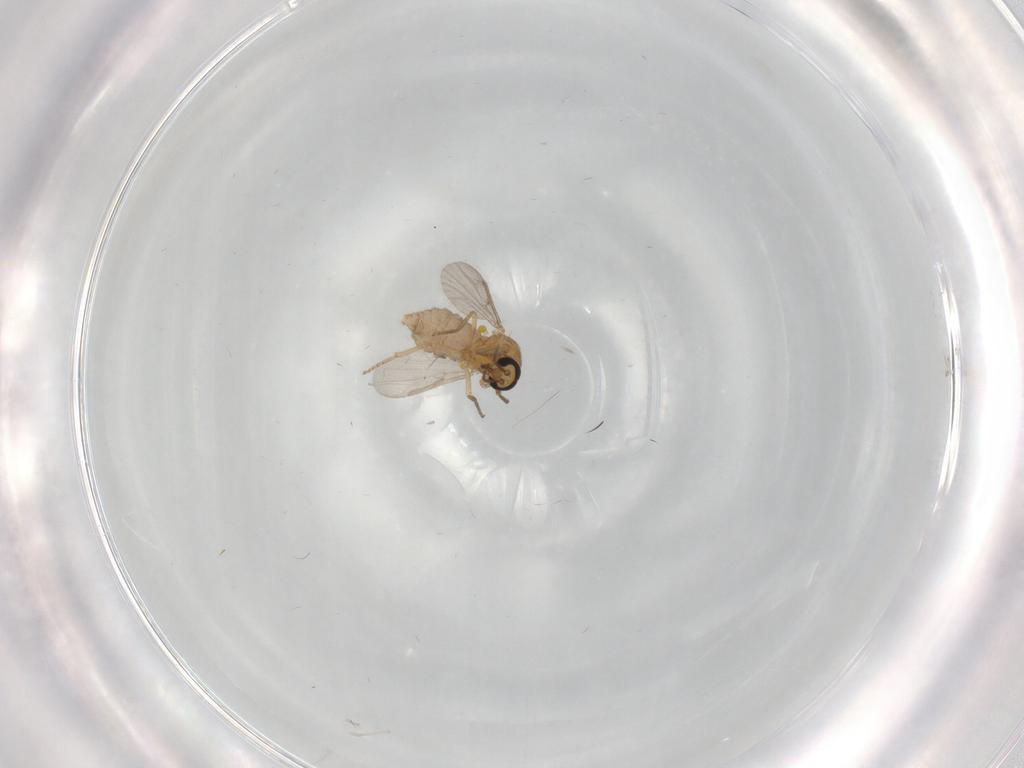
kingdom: Animalia
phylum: Arthropoda
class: Insecta
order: Diptera
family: Ceratopogonidae
